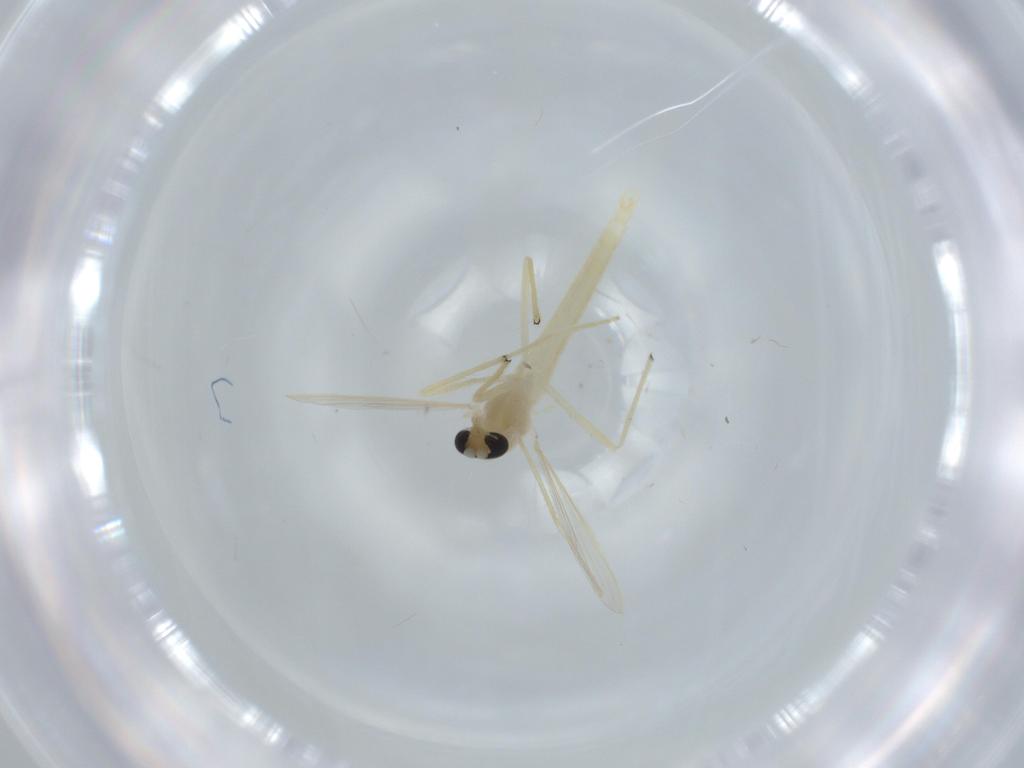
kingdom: Animalia
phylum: Arthropoda
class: Insecta
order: Diptera
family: Chironomidae
